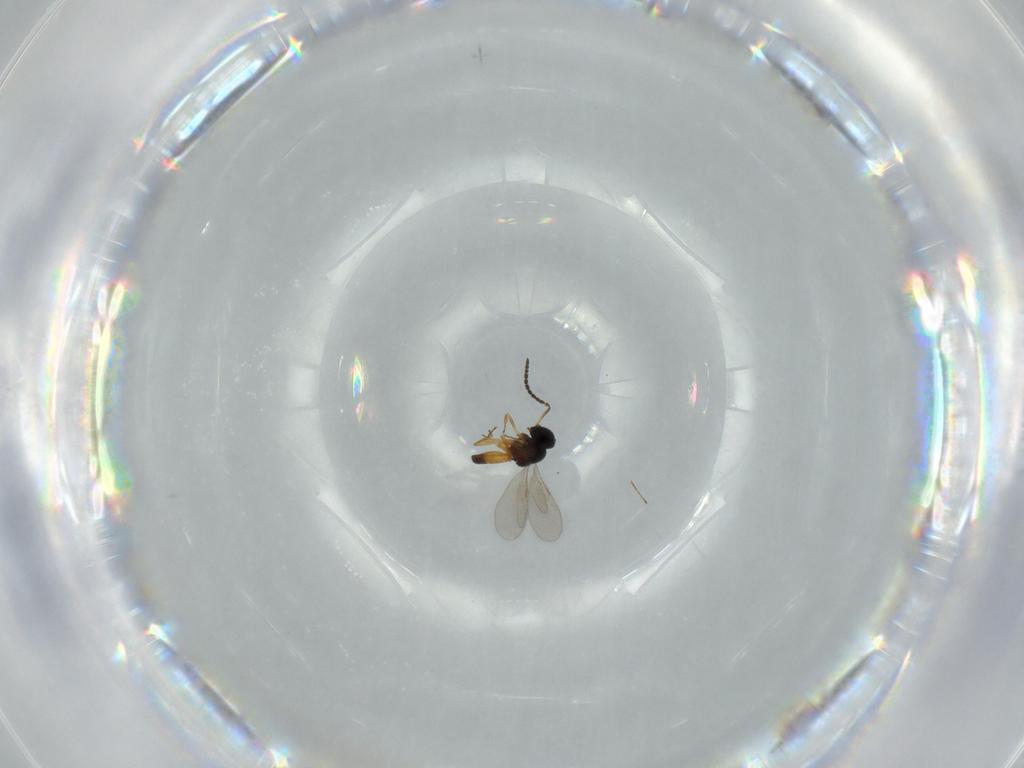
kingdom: Animalia
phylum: Arthropoda
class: Insecta
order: Hymenoptera
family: Scelionidae
